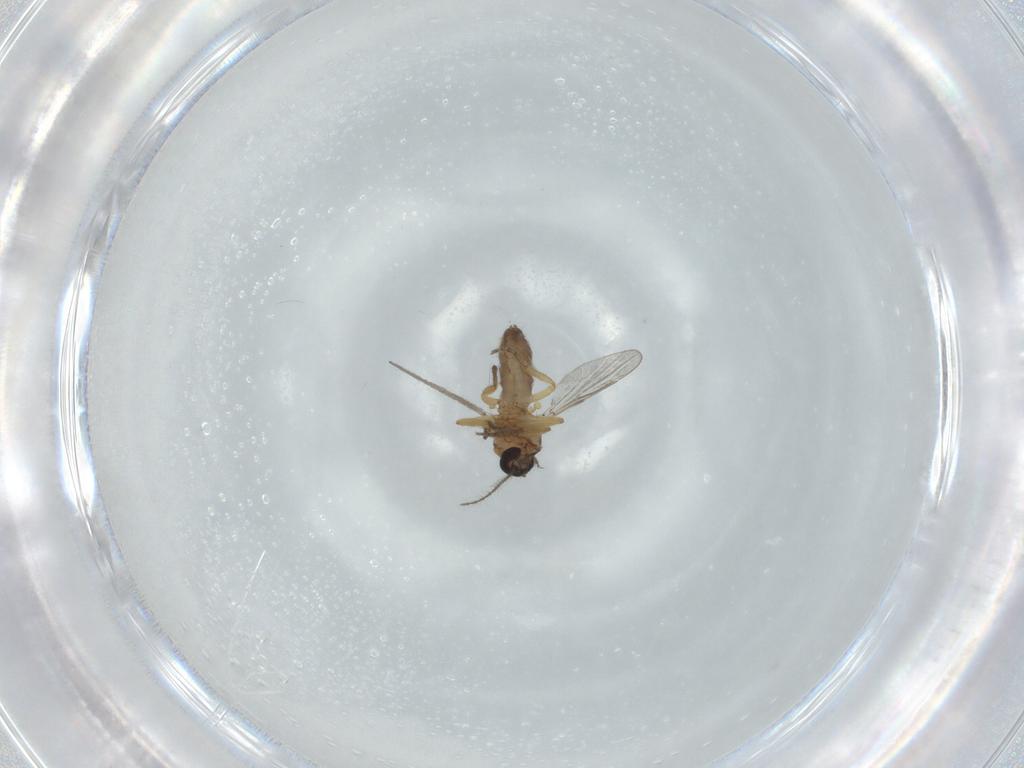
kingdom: Animalia
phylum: Arthropoda
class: Insecta
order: Diptera
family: Ceratopogonidae
